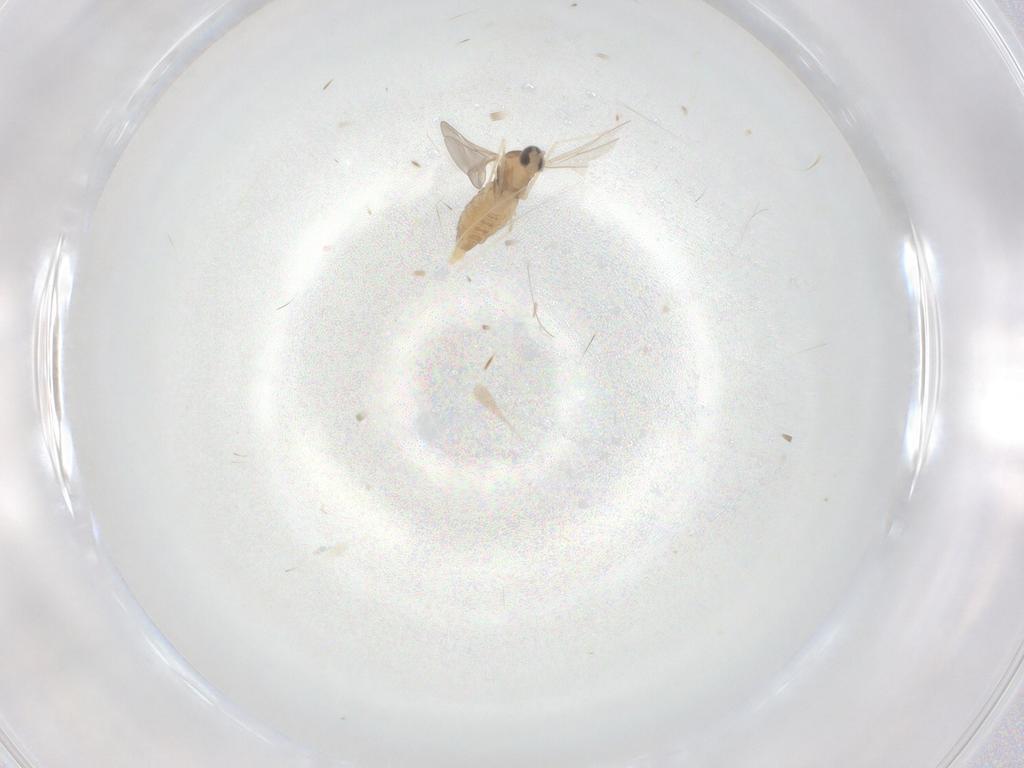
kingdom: Animalia
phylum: Arthropoda
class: Insecta
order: Diptera
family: Cecidomyiidae
